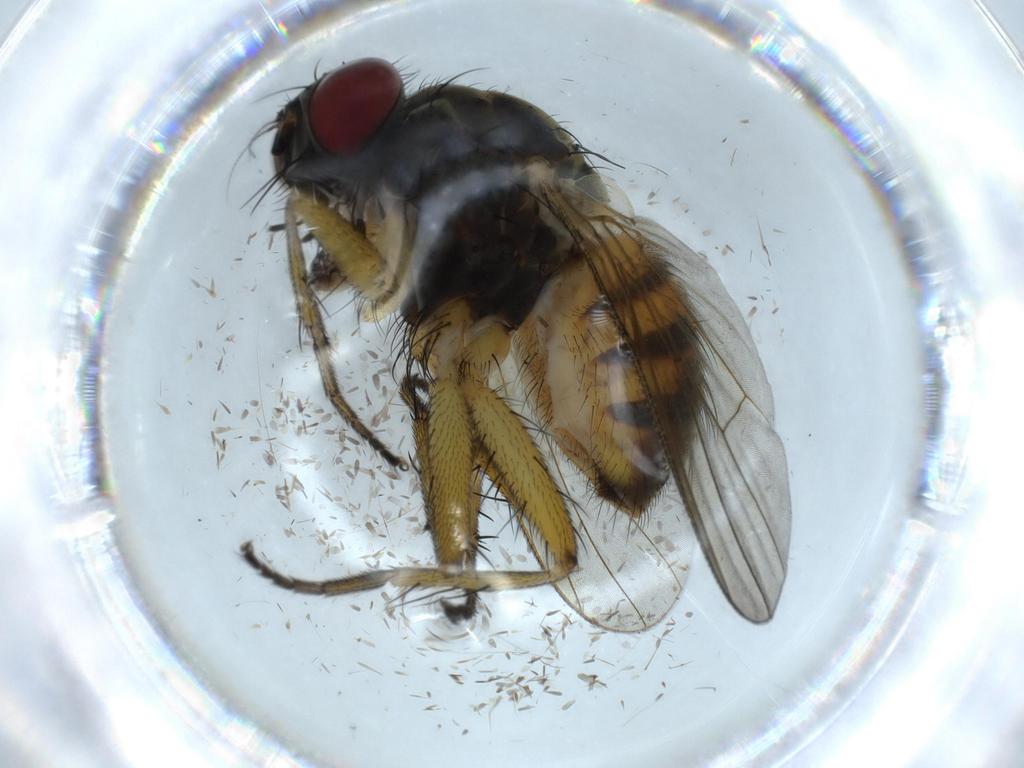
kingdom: Animalia
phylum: Arthropoda
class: Insecta
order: Diptera
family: Muscidae
